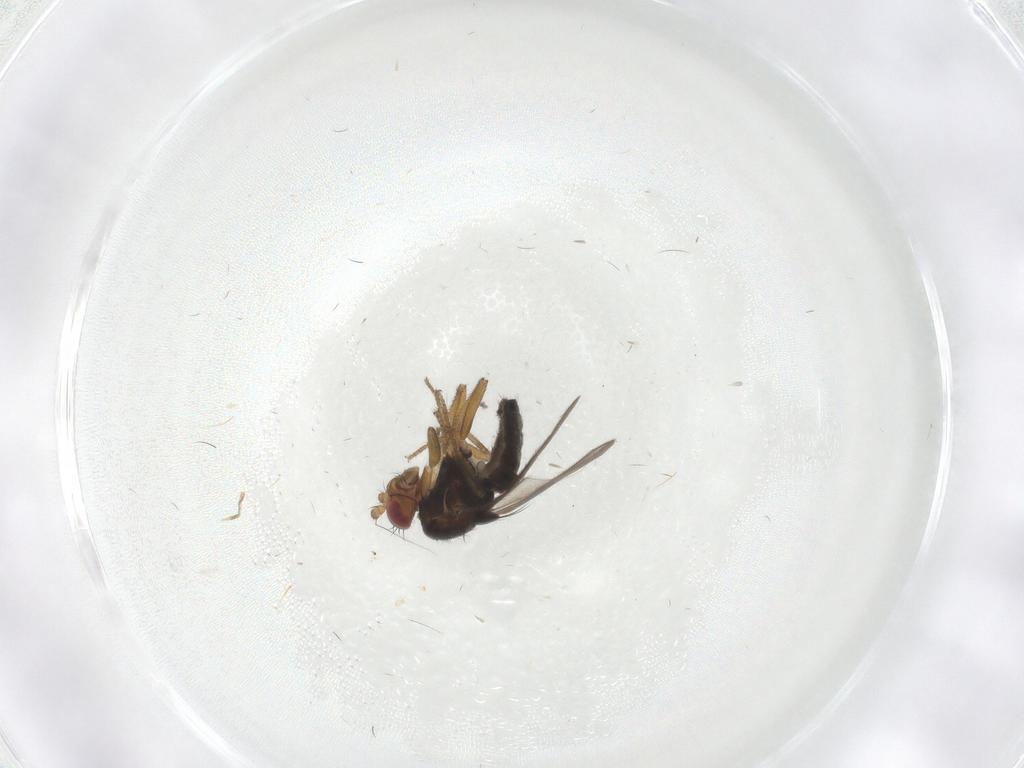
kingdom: Animalia
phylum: Arthropoda
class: Insecta
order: Diptera
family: Sphaeroceridae
